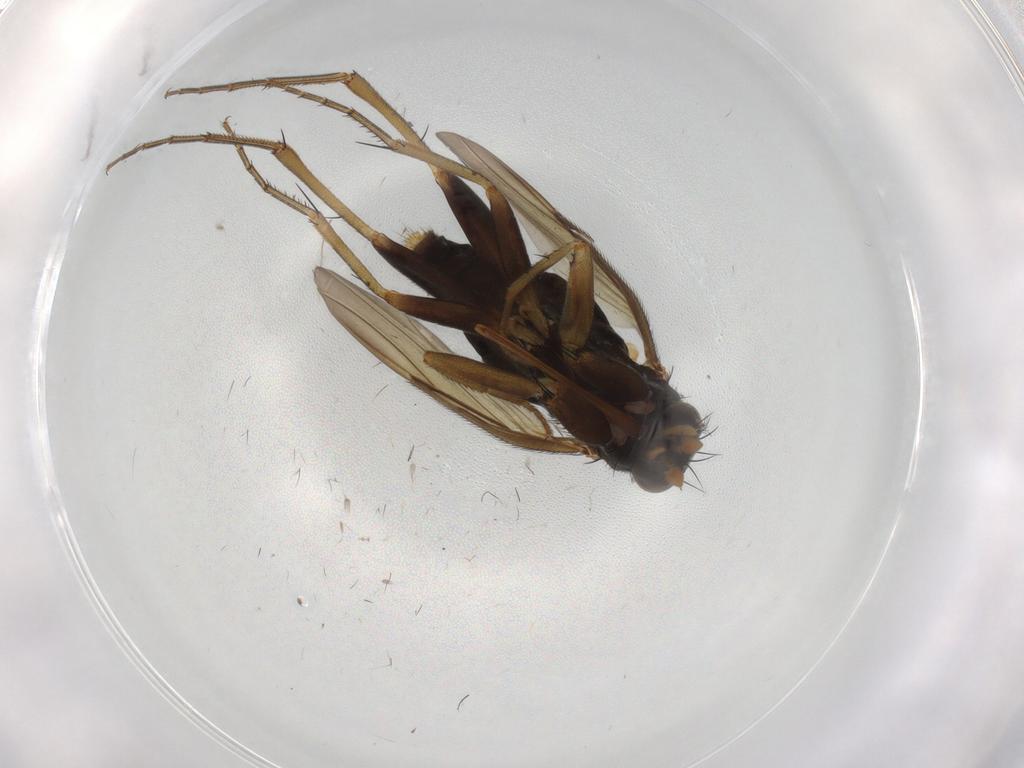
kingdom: Animalia
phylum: Arthropoda
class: Insecta
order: Diptera
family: Phoridae
